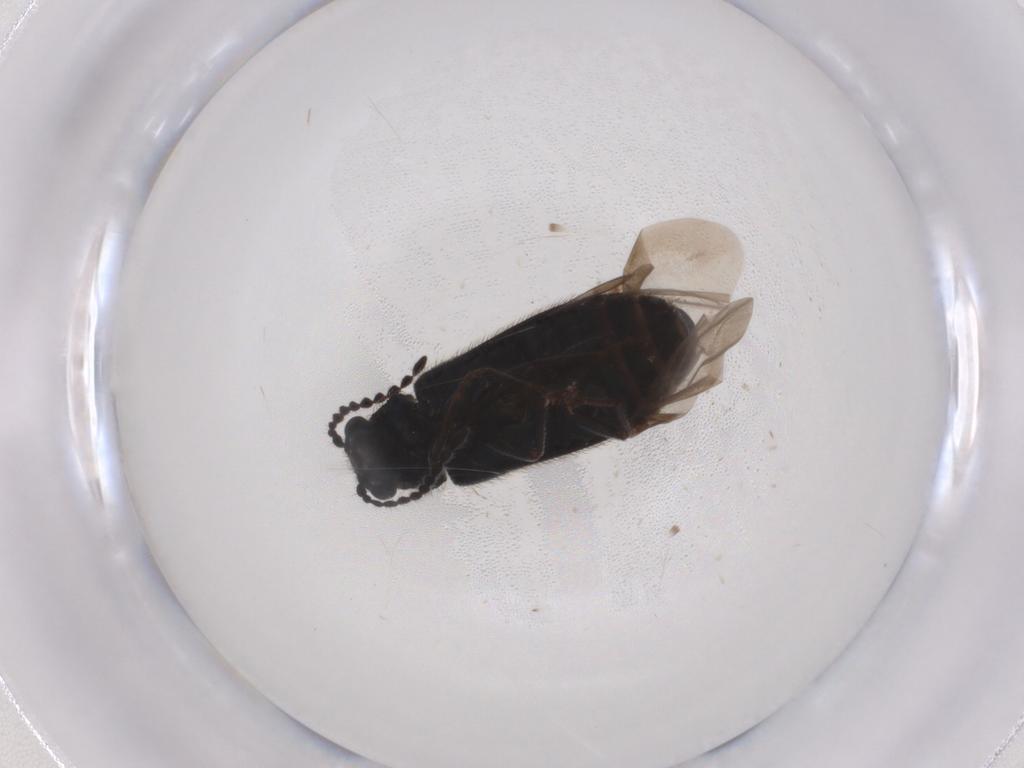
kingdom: Animalia
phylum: Arthropoda
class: Insecta
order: Coleoptera
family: Melyridae
